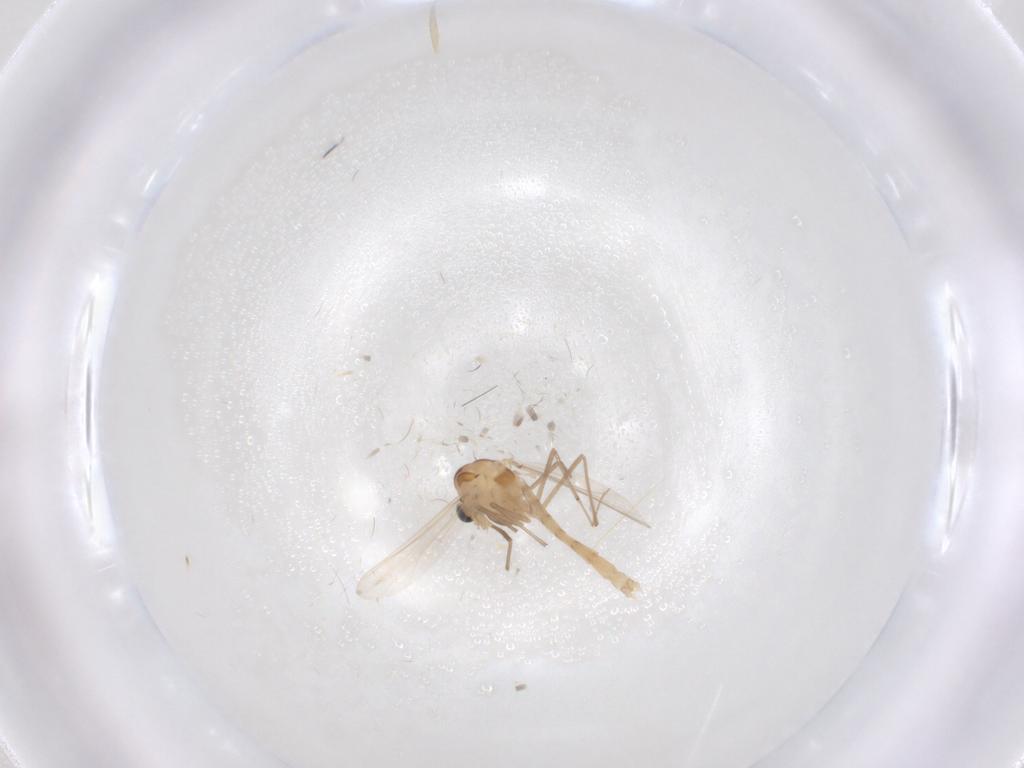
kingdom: Animalia
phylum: Arthropoda
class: Insecta
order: Diptera
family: Chironomidae
